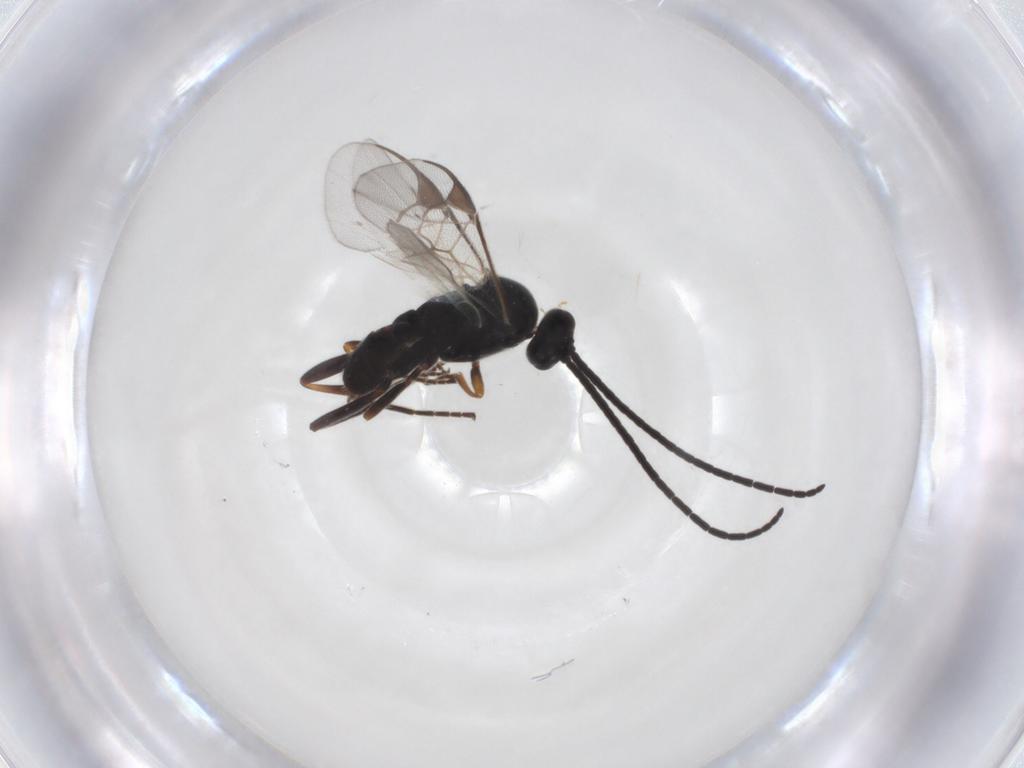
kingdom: Animalia
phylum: Arthropoda
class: Insecta
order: Hymenoptera
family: Braconidae
